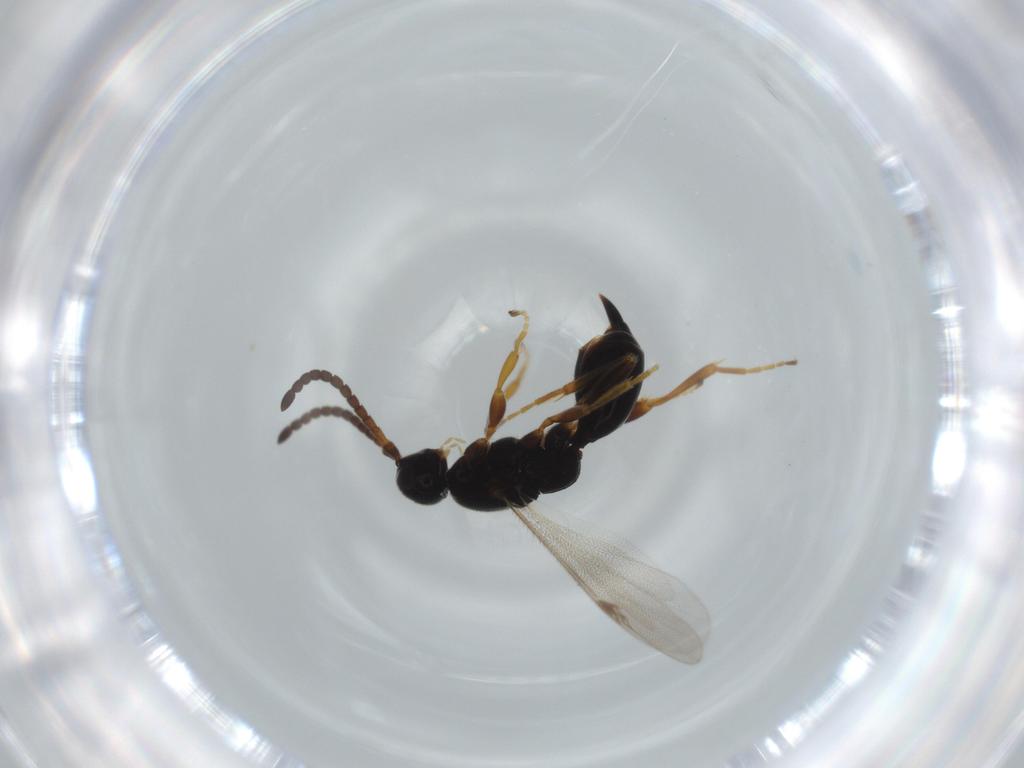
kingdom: Animalia
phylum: Arthropoda
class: Insecta
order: Hymenoptera
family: Proctotrupidae
